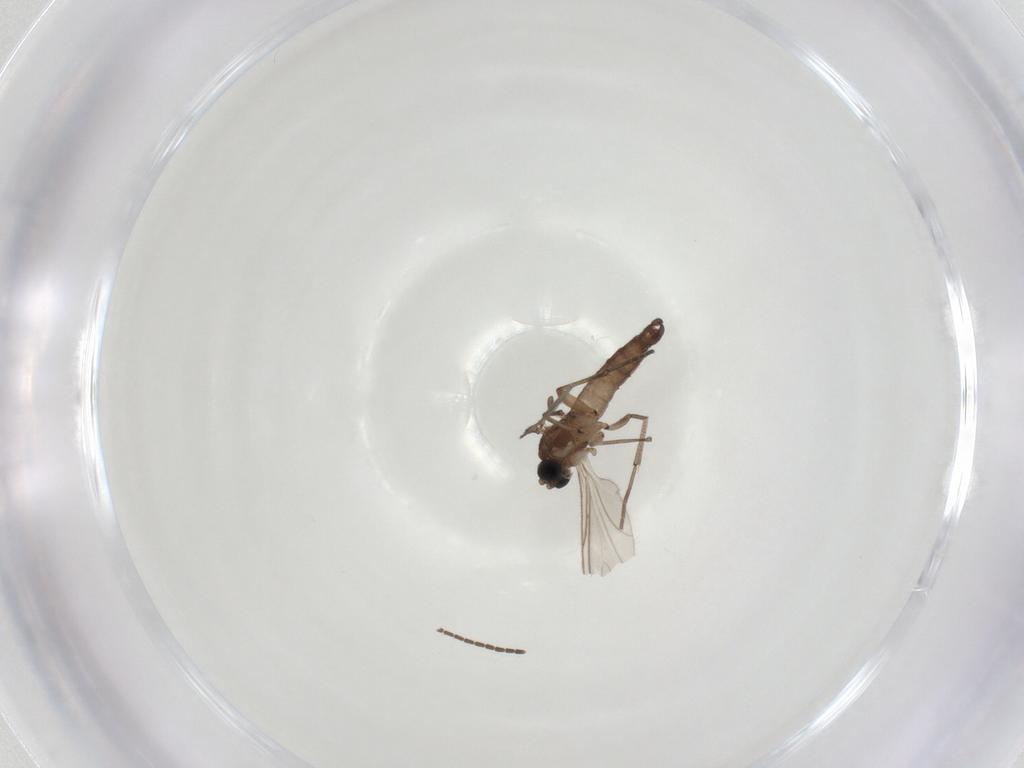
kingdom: Animalia
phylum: Arthropoda
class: Insecta
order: Diptera
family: Sciaridae
